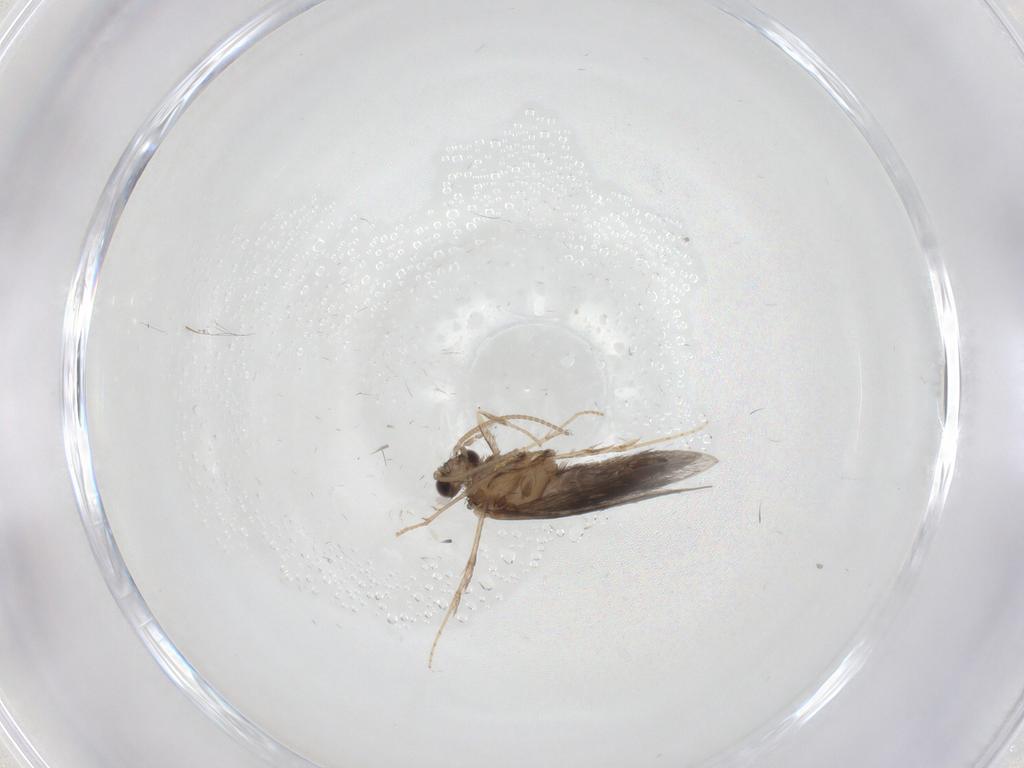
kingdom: Animalia
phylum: Arthropoda
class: Insecta
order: Trichoptera
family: Hydroptilidae
